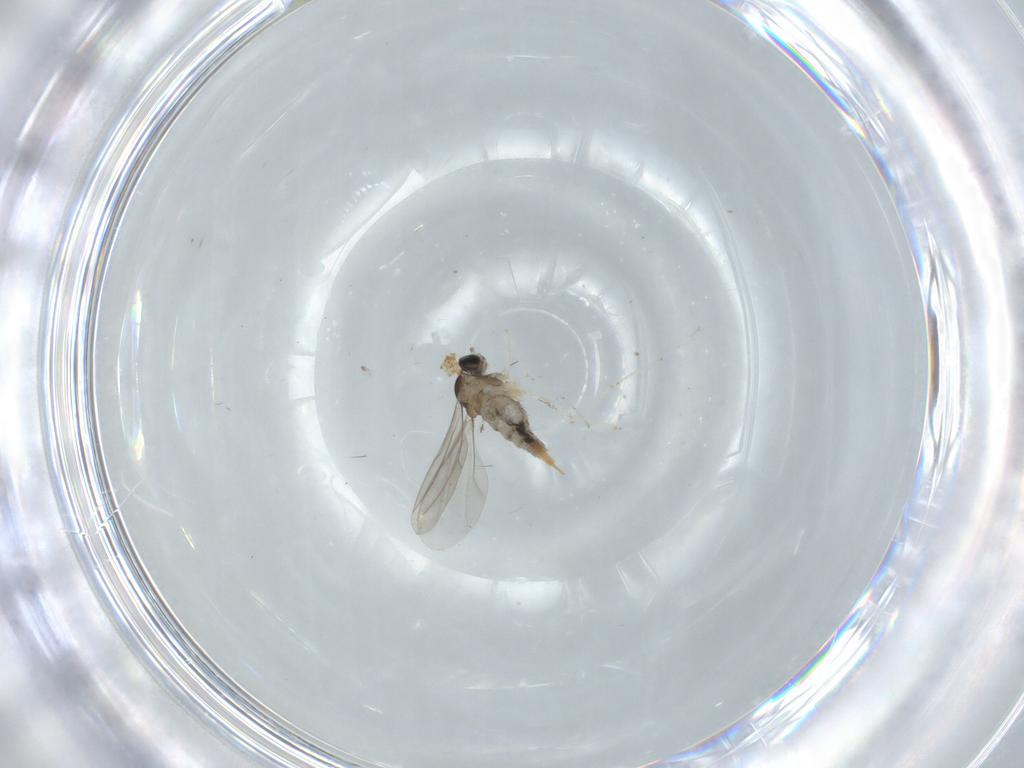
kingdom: Animalia
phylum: Arthropoda
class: Insecta
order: Diptera
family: Cecidomyiidae
